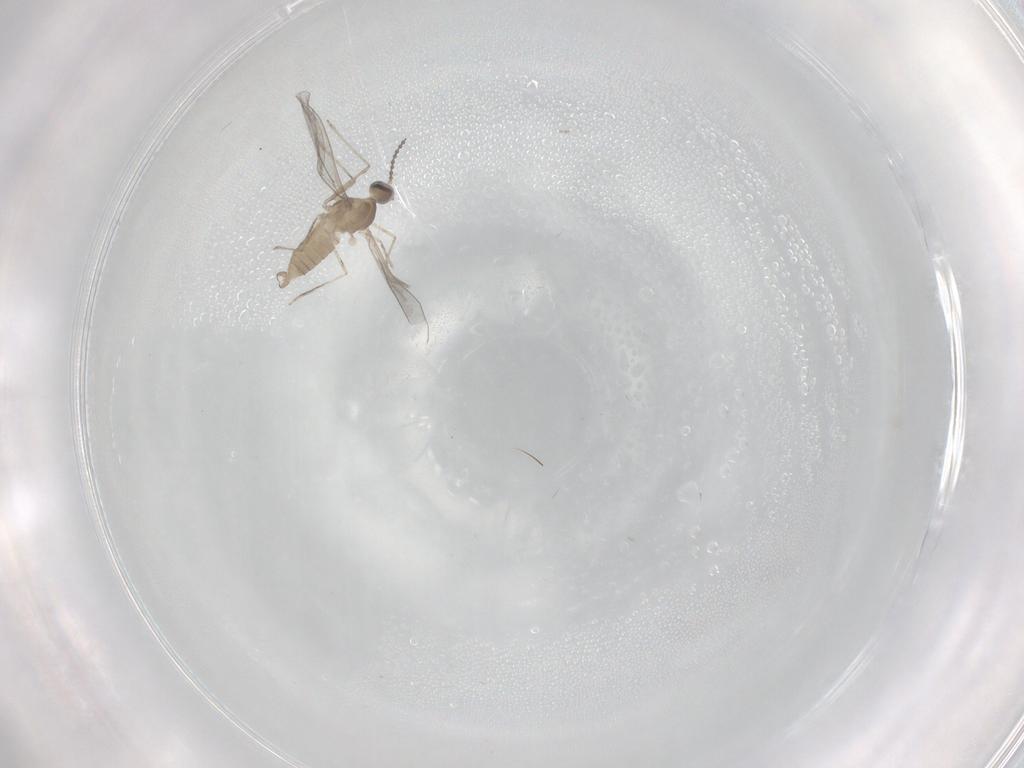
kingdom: Animalia
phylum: Arthropoda
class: Insecta
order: Diptera
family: Cecidomyiidae
